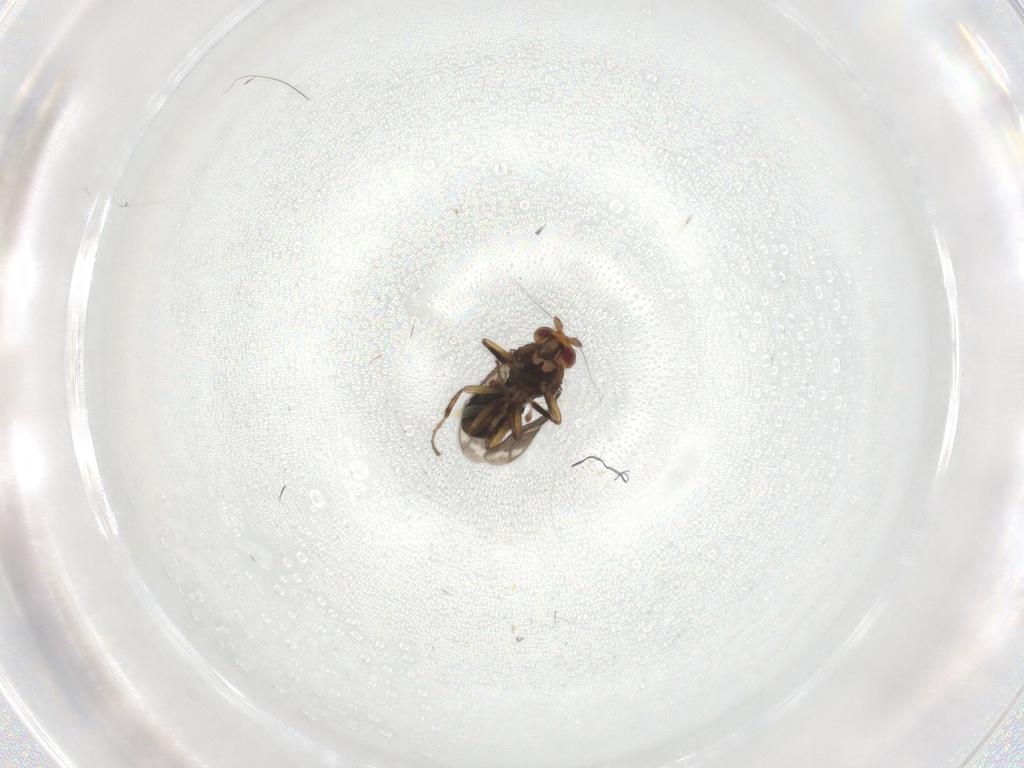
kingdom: Animalia
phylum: Arthropoda
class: Insecta
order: Diptera
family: Sphaeroceridae
